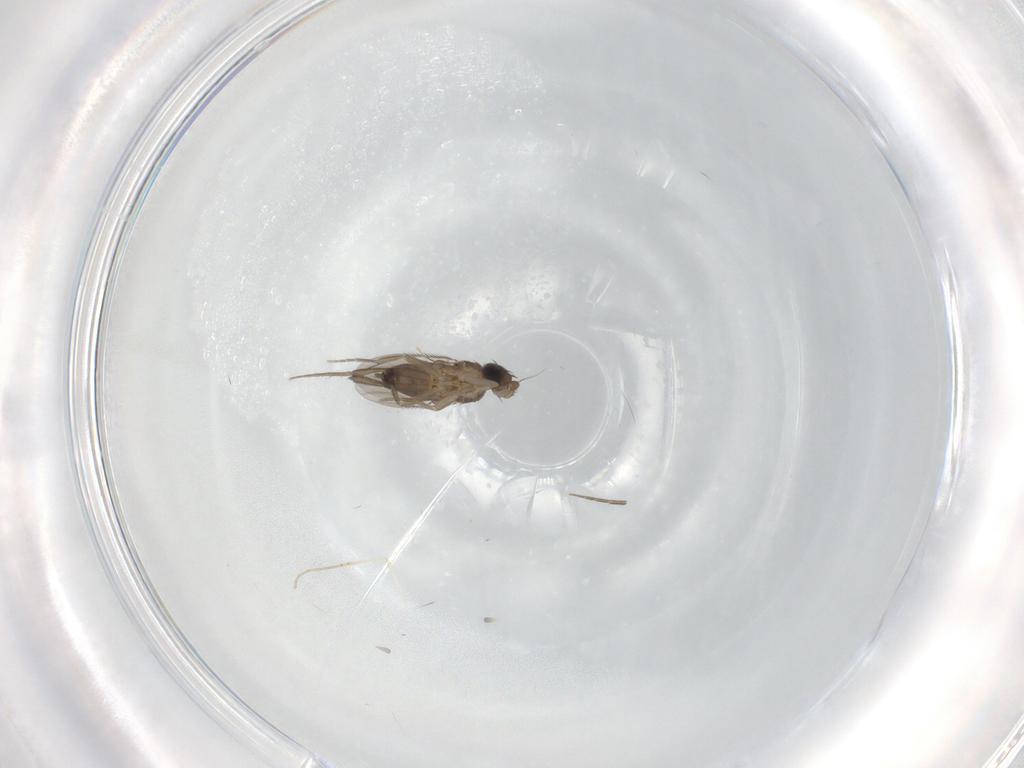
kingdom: Animalia
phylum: Arthropoda
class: Insecta
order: Diptera
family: Phoridae
